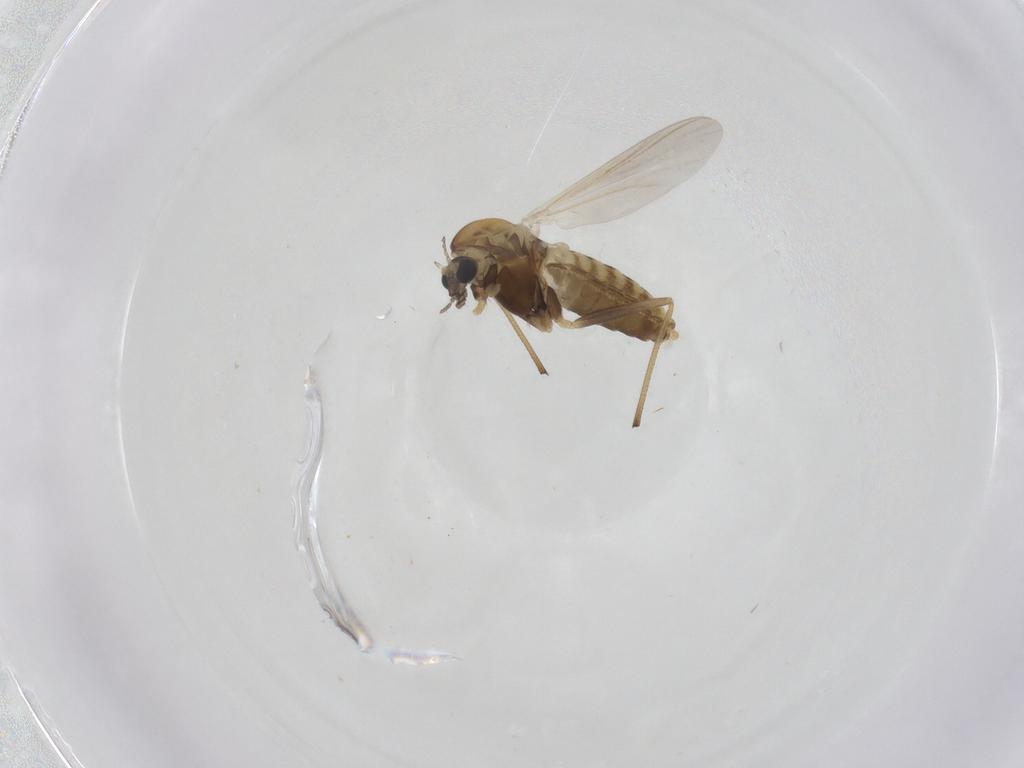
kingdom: Animalia
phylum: Arthropoda
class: Insecta
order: Diptera
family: Chironomidae
